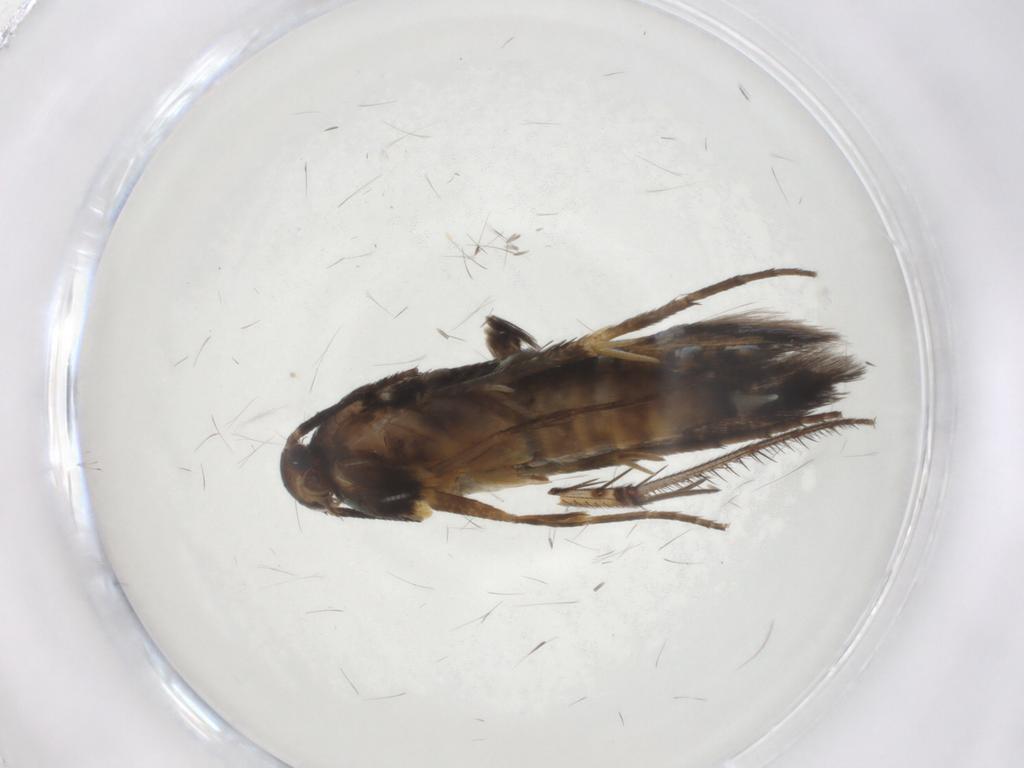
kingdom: Animalia
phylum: Arthropoda
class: Insecta
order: Lepidoptera
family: Heliodinidae
